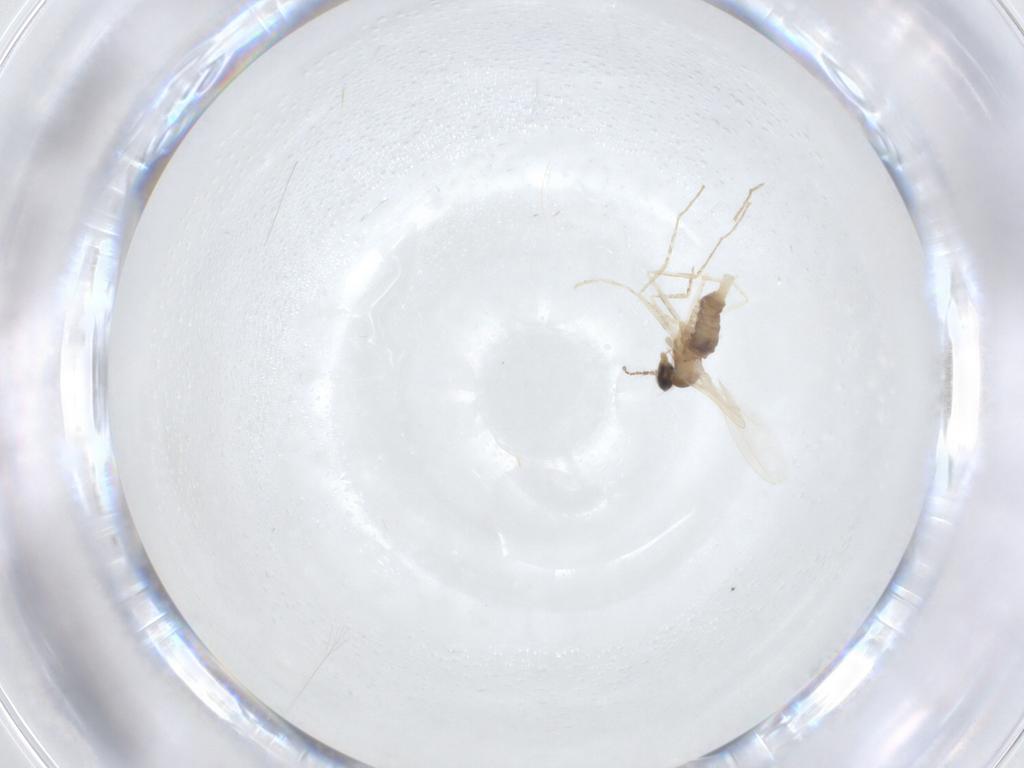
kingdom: Animalia
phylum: Arthropoda
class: Insecta
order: Diptera
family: Cecidomyiidae
